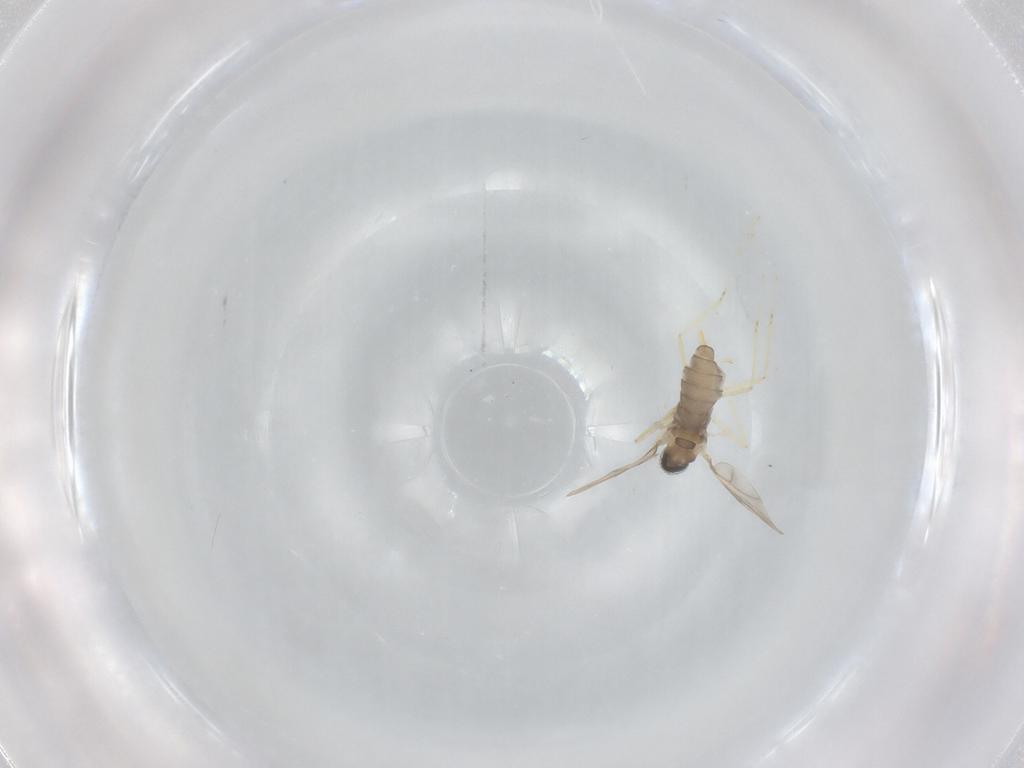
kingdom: Animalia
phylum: Arthropoda
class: Insecta
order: Diptera
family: Cecidomyiidae
